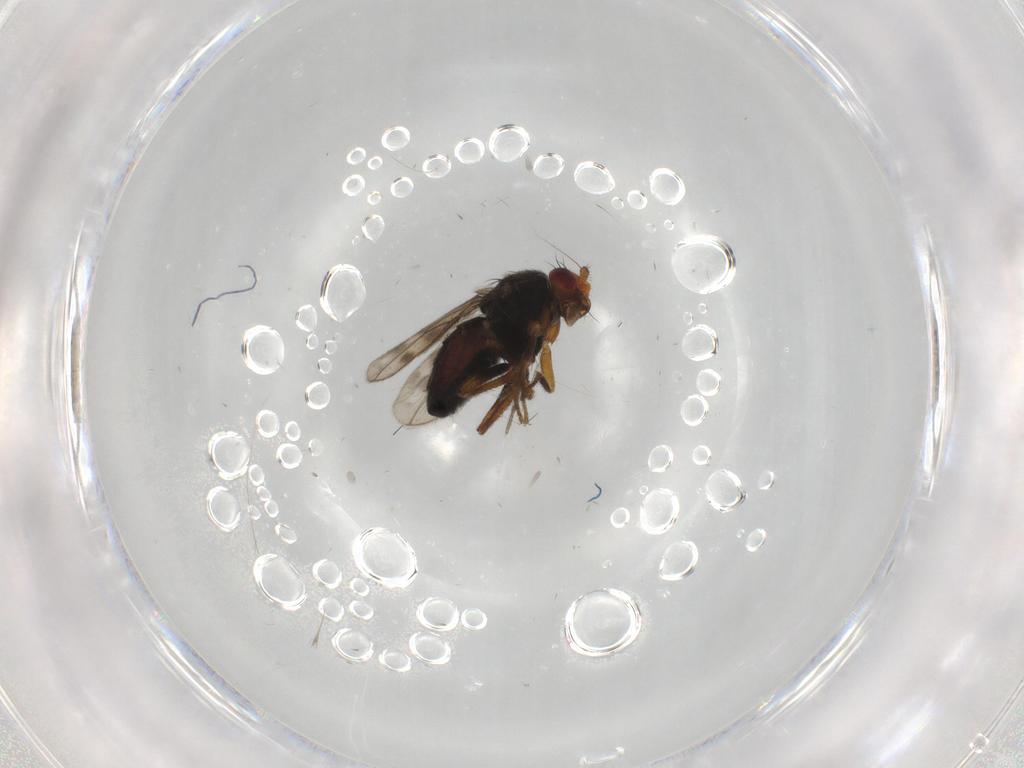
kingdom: Animalia
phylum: Arthropoda
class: Insecta
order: Diptera
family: Sphaeroceridae
